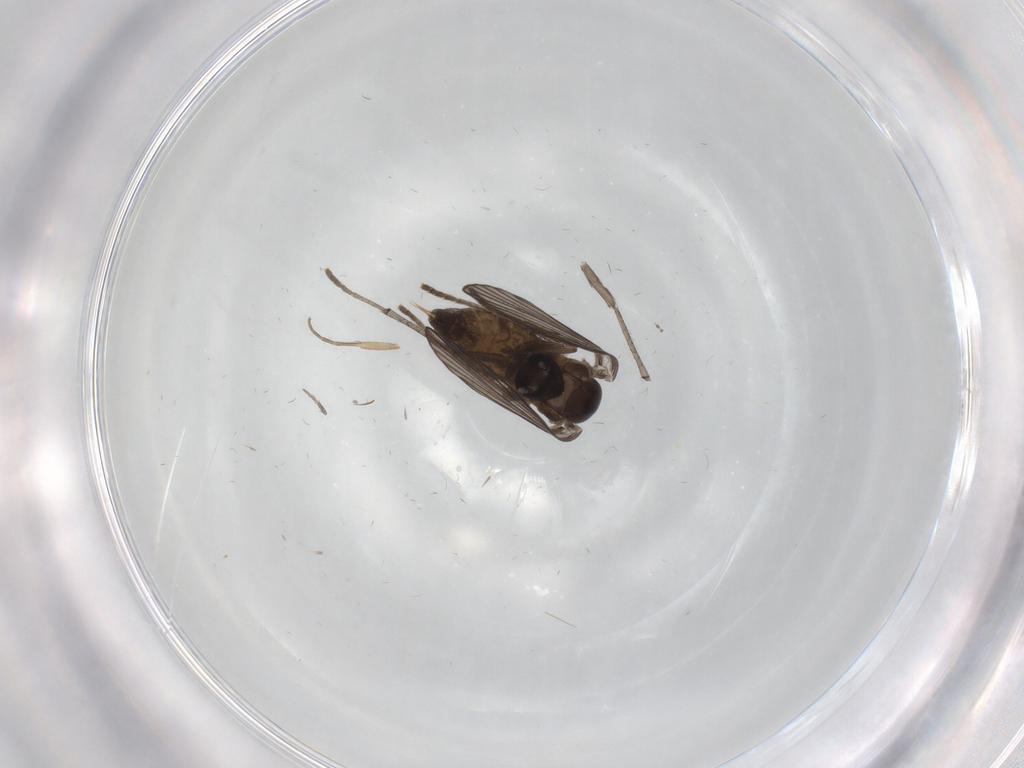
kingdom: Animalia
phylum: Arthropoda
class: Insecta
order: Diptera
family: Psychodidae
